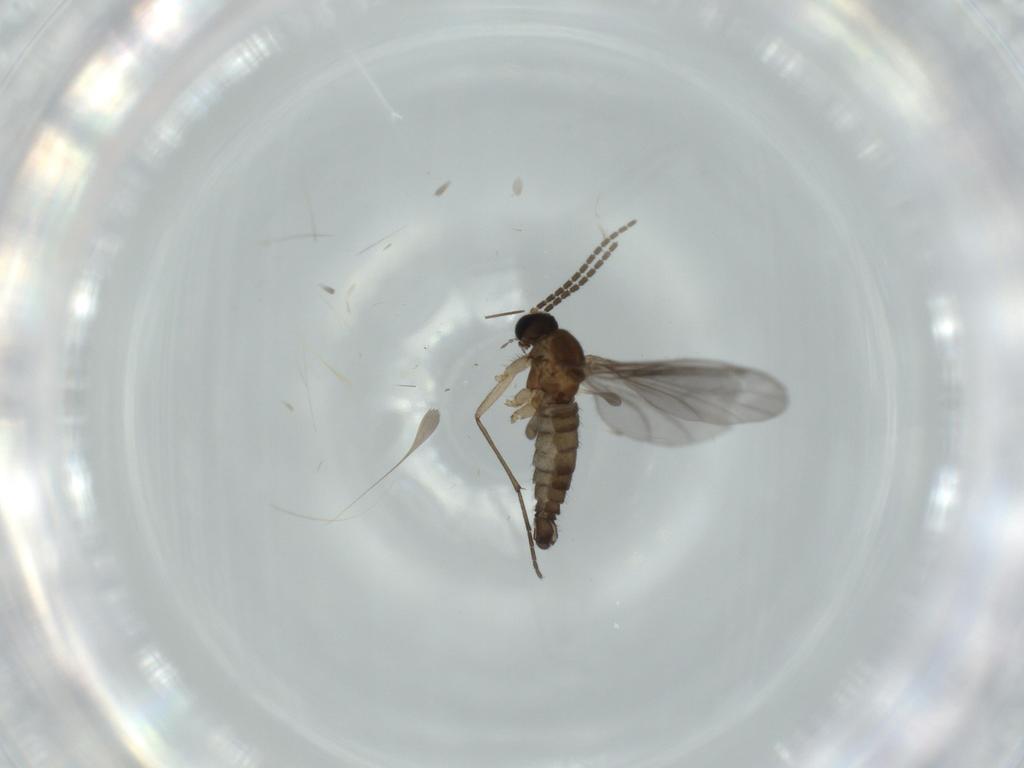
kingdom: Animalia
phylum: Arthropoda
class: Insecta
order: Diptera
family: Sciaridae
